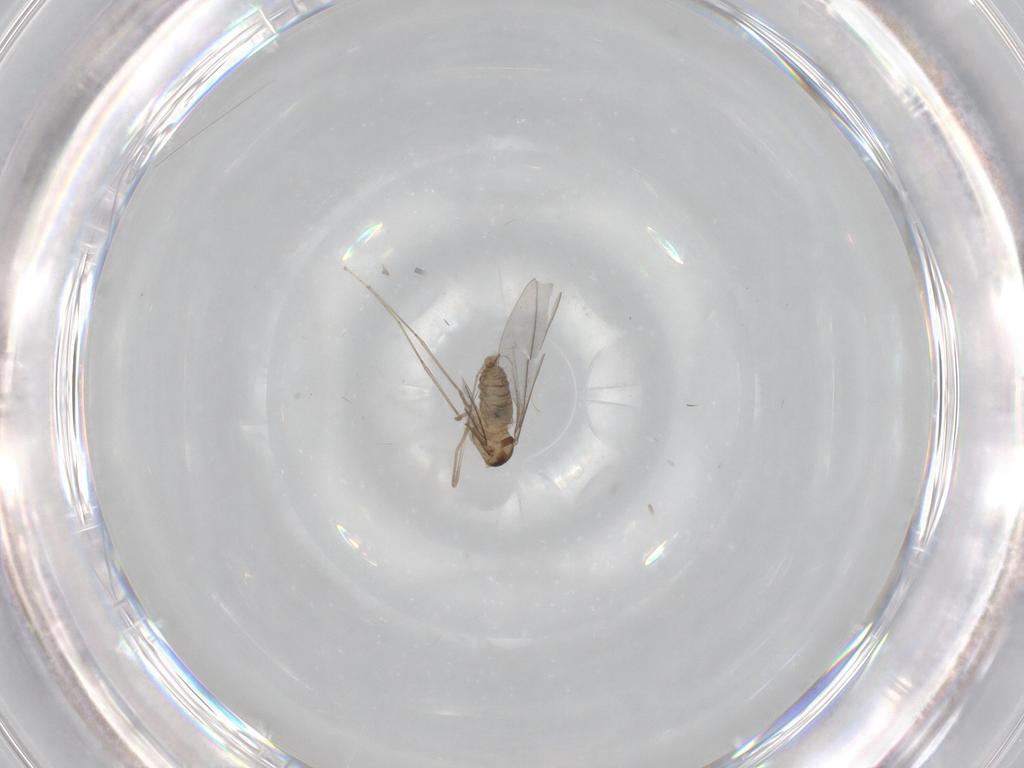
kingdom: Animalia
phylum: Arthropoda
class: Insecta
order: Diptera
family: Cecidomyiidae
